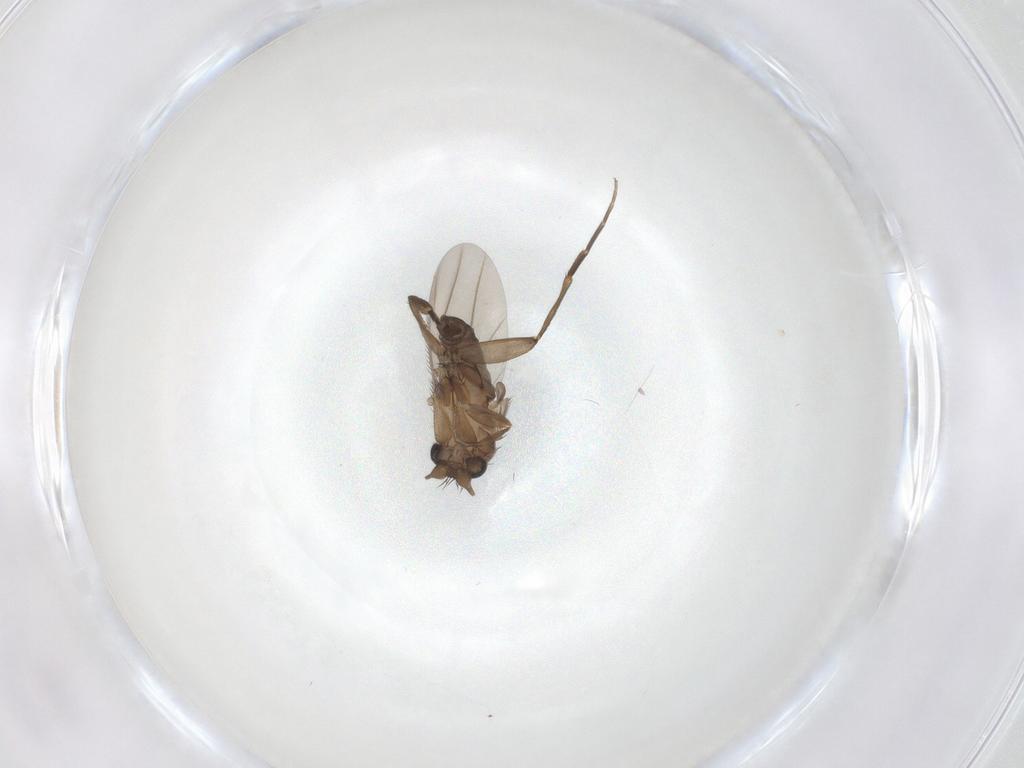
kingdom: Animalia
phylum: Arthropoda
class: Insecta
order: Diptera
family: Phoridae
